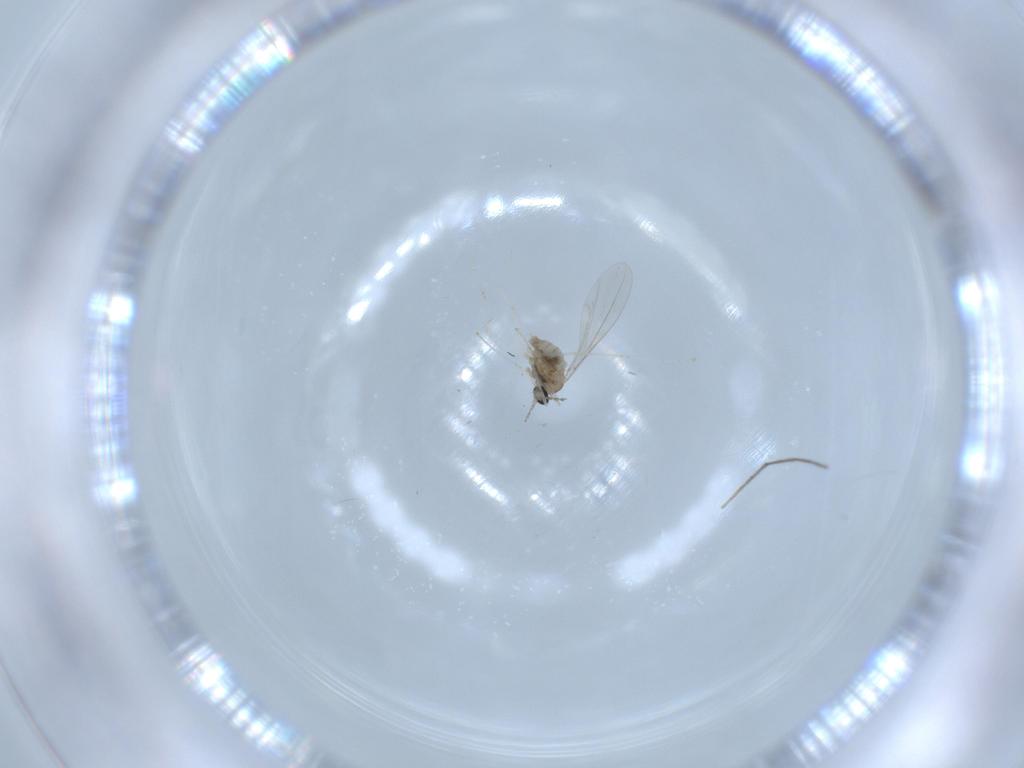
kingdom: Animalia
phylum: Arthropoda
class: Insecta
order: Diptera
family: Cecidomyiidae
